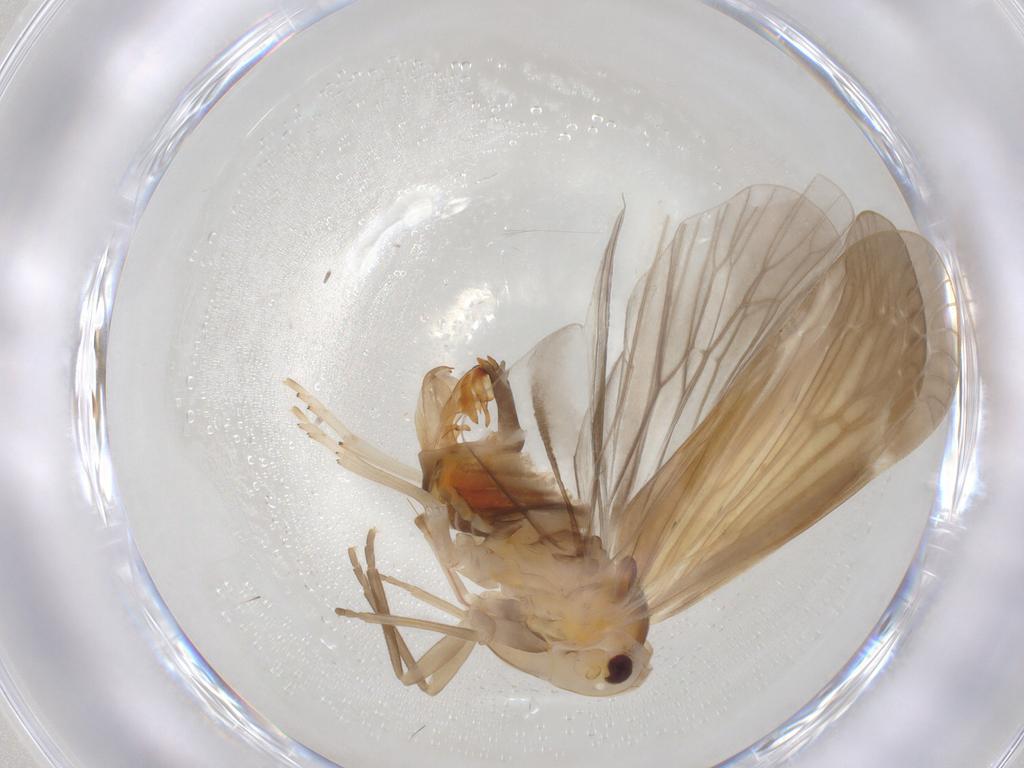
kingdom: Animalia
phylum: Arthropoda
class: Insecta
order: Hemiptera
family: Derbidae
